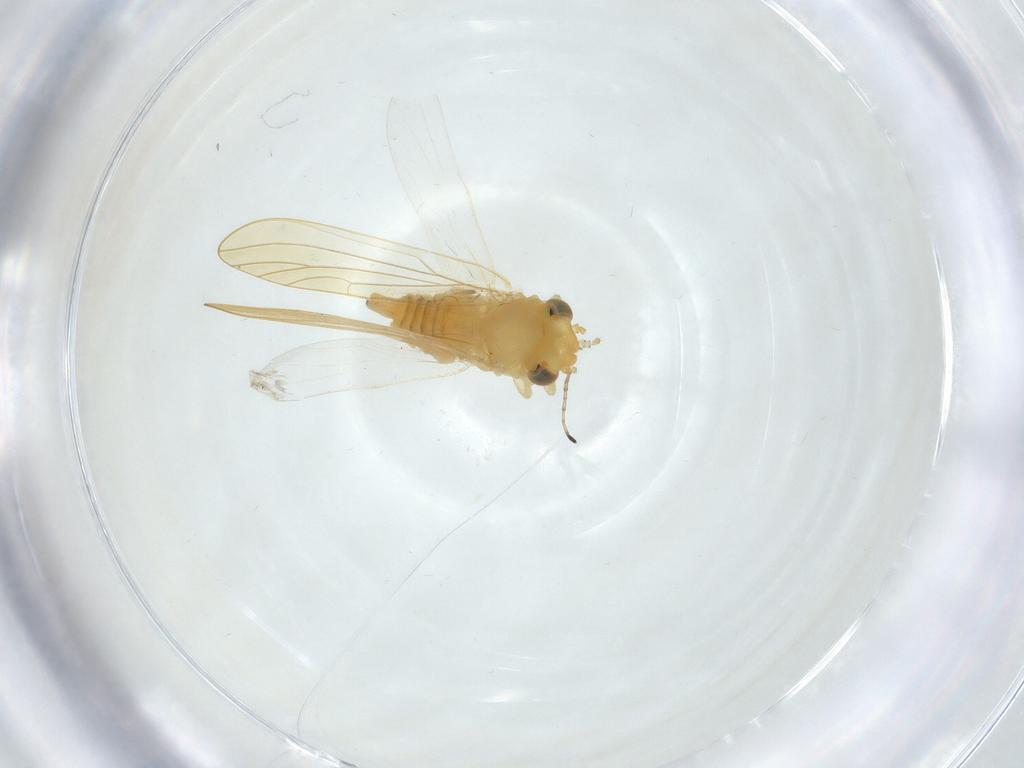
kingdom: Animalia
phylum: Arthropoda
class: Insecta
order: Hemiptera
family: Aphalaridae
